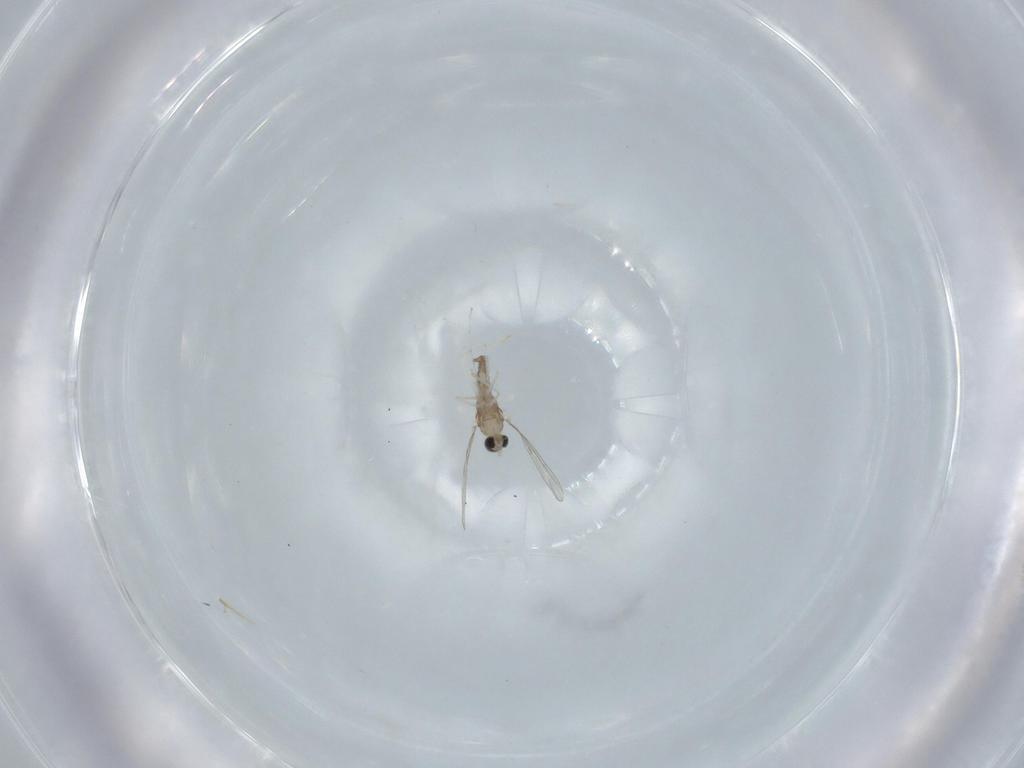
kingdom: Animalia
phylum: Arthropoda
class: Insecta
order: Diptera
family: Cecidomyiidae
